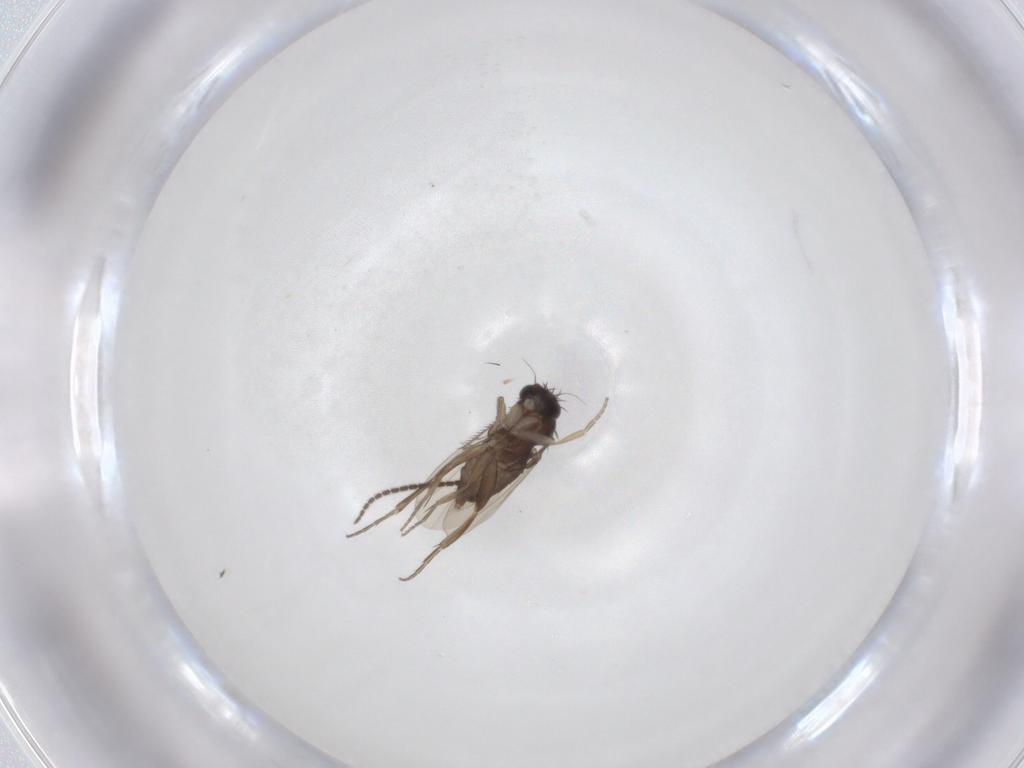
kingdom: Animalia
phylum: Arthropoda
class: Insecta
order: Diptera
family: Sciaridae
